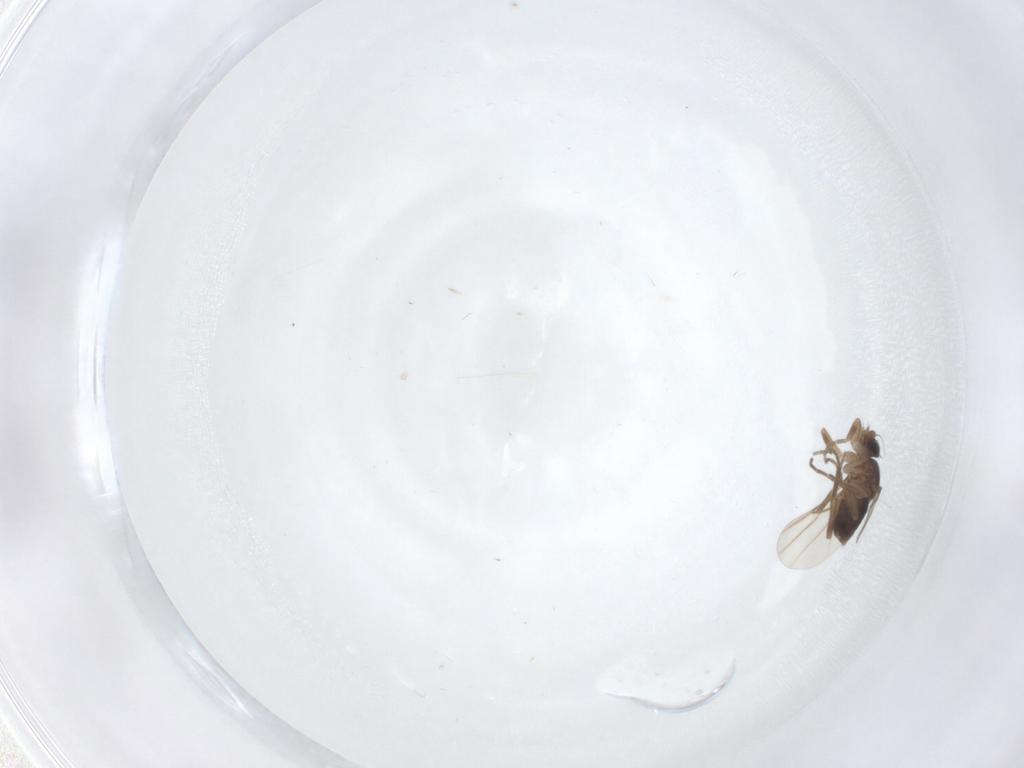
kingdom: Animalia
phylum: Arthropoda
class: Insecta
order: Diptera
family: Phoridae
